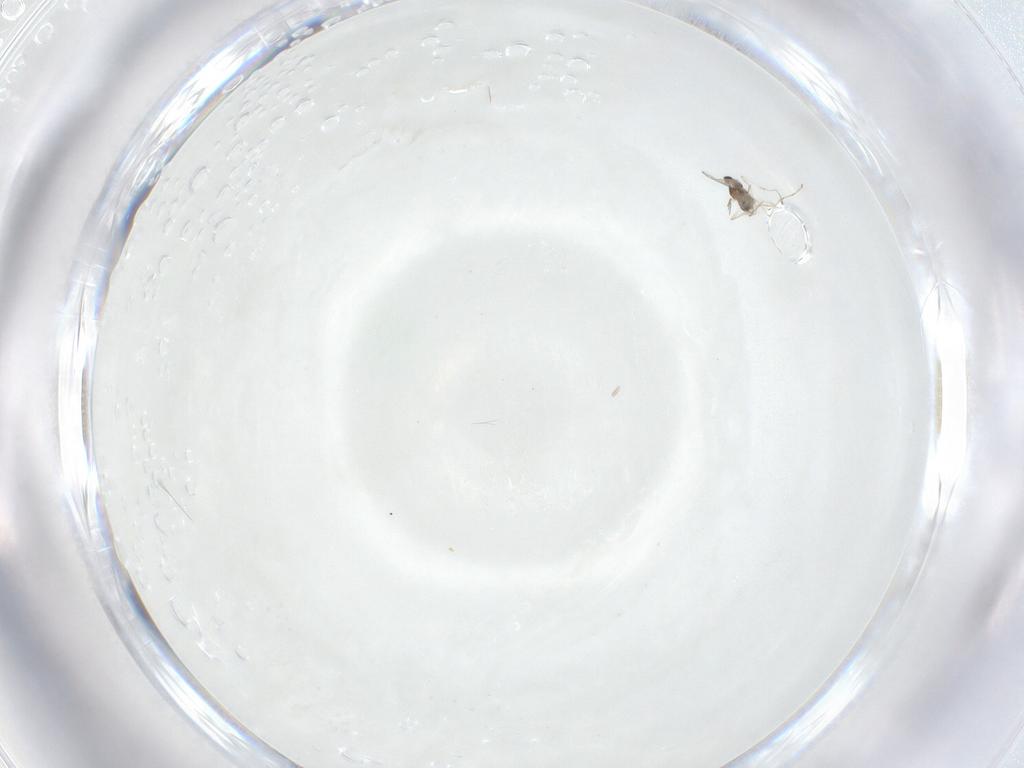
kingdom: Animalia
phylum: Arthropoda
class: Insecta
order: Diptera
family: Cecidomyiidae
